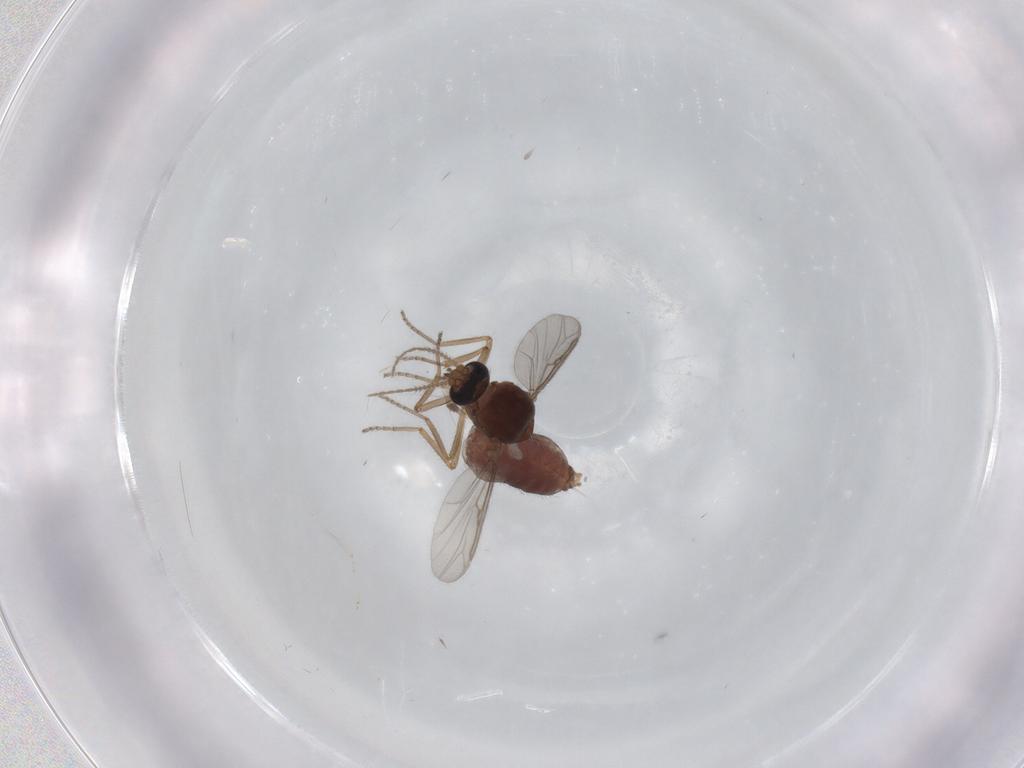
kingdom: Animalia
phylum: Arthropoda
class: Insecta
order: Diptera
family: Ceratopogonidae
